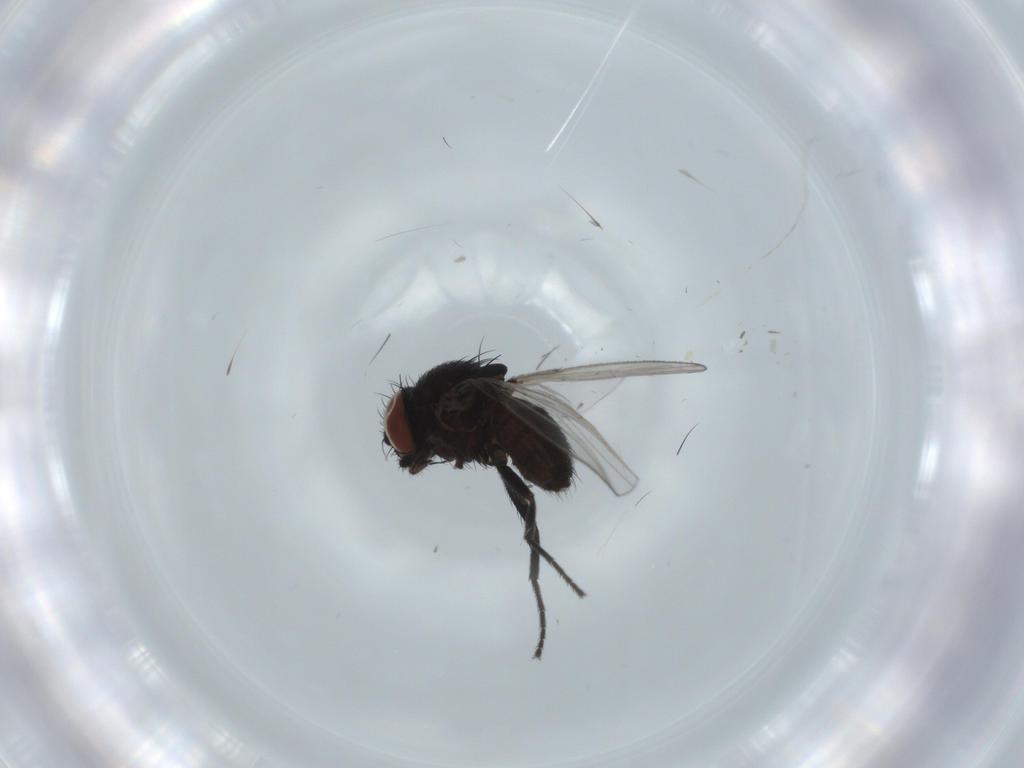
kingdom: Animalia
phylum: Arthropoda
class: Insecta
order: Diptera
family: Milichiidae
